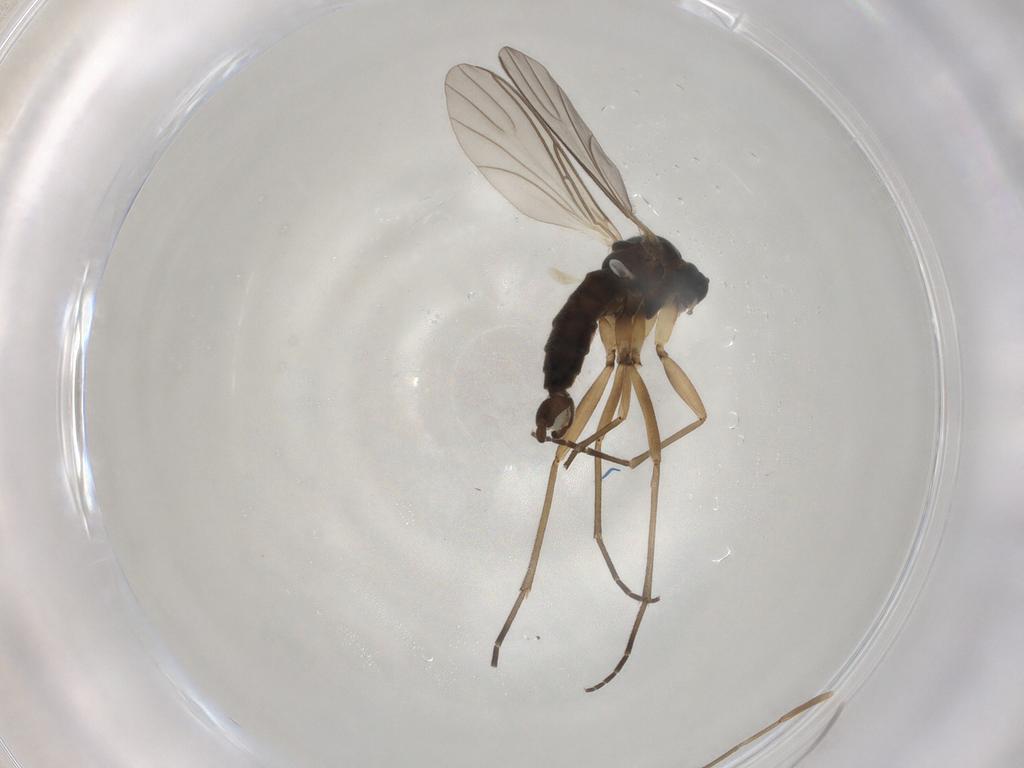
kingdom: Animalia
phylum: Arthropoda
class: Insecta
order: Diptera
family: Sciaridae
